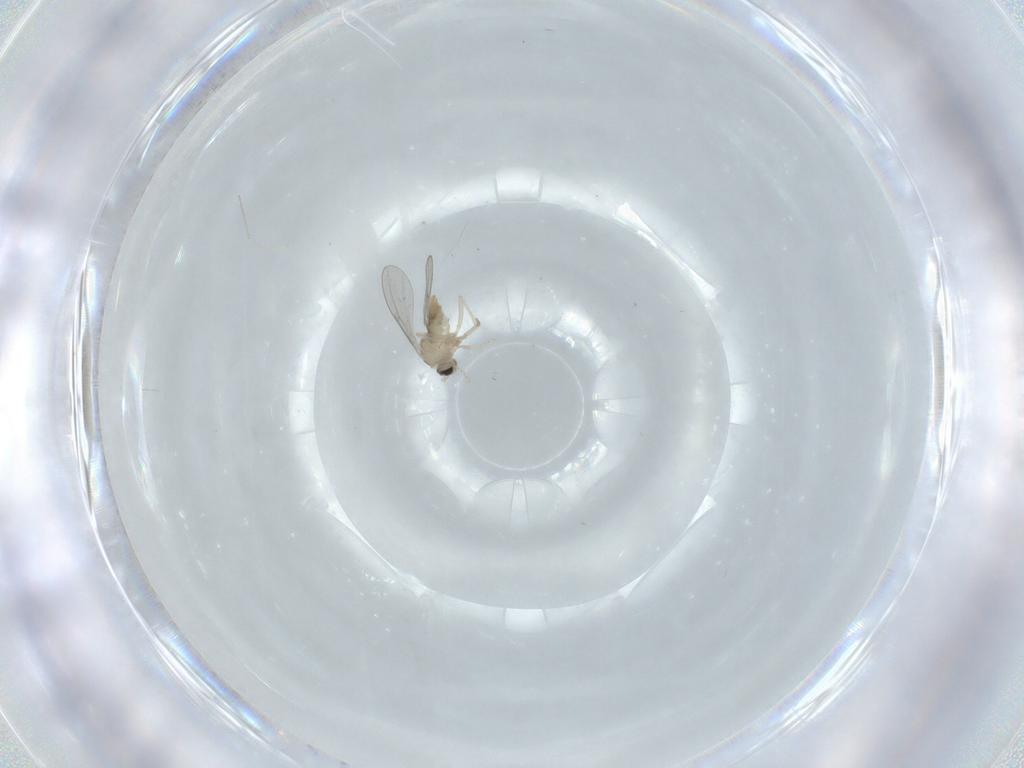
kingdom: Animalia
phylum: Arthropoda
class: Insecta
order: Diptera
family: Cecidomyiidae
